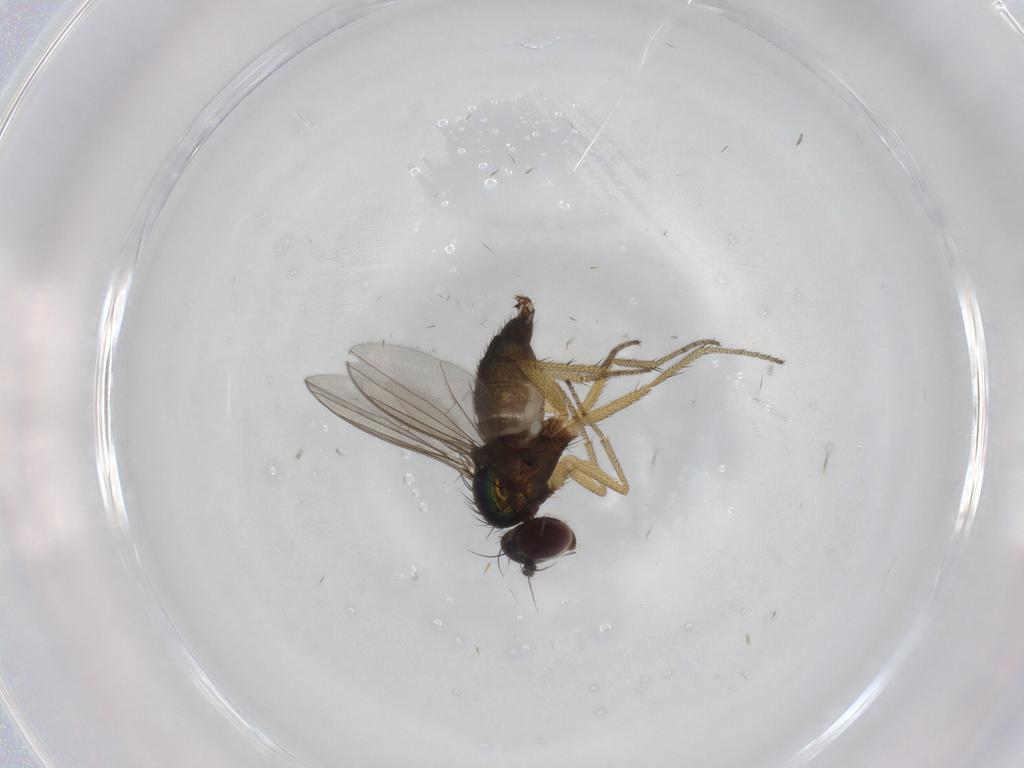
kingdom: Animalia
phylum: Arthropoda
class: Insecta
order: Diptera
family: Dolichopodidae
